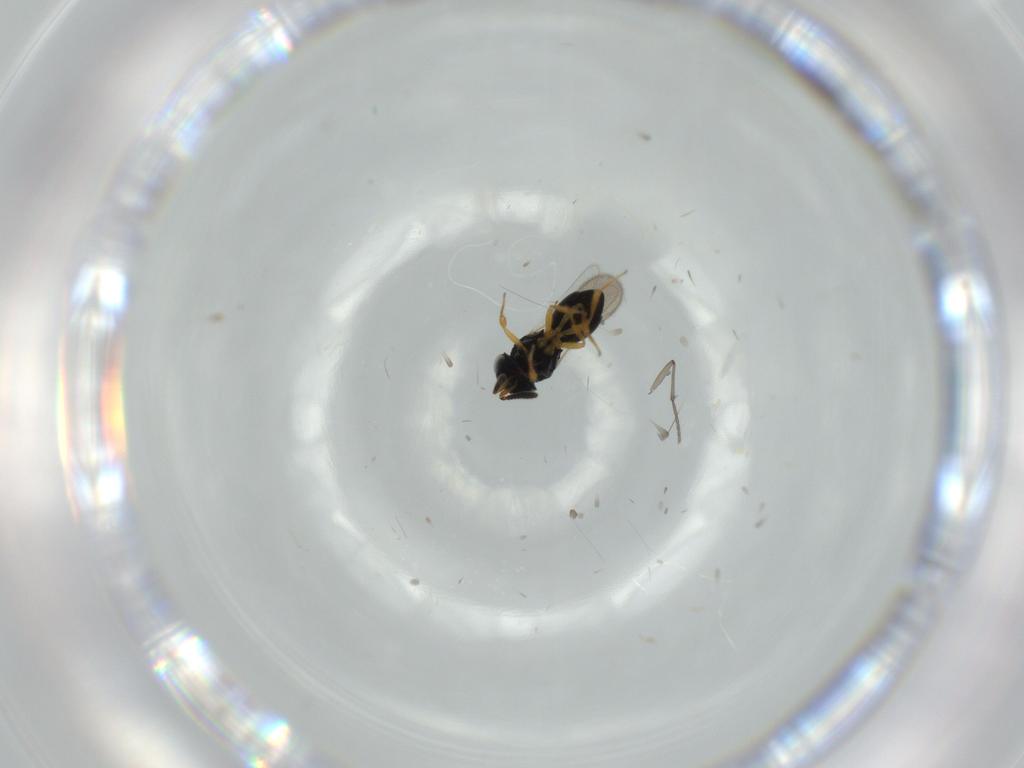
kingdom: Animalia
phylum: Arthropoda
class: Insecta
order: Hymenoptera
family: Scelionidae
